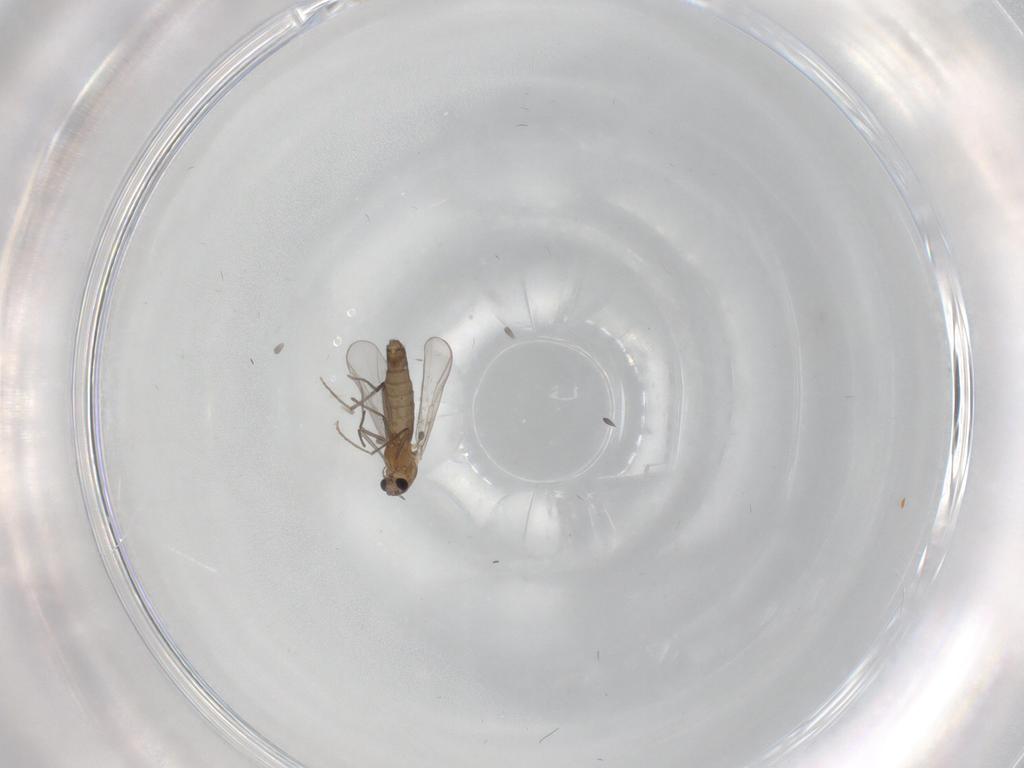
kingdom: Animalia
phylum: Arthropoda
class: Insecta
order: Diptera
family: Chironomidae
